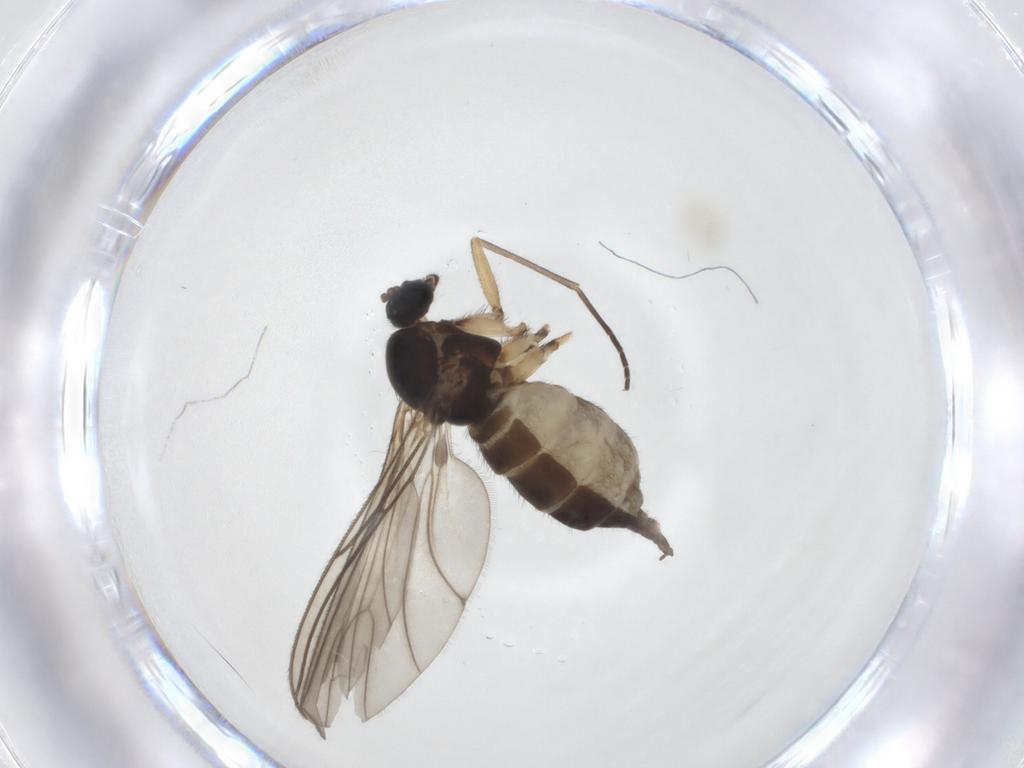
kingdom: Animalia
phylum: Arthropoda
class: Insecta
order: Diptera
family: Sciaridae
